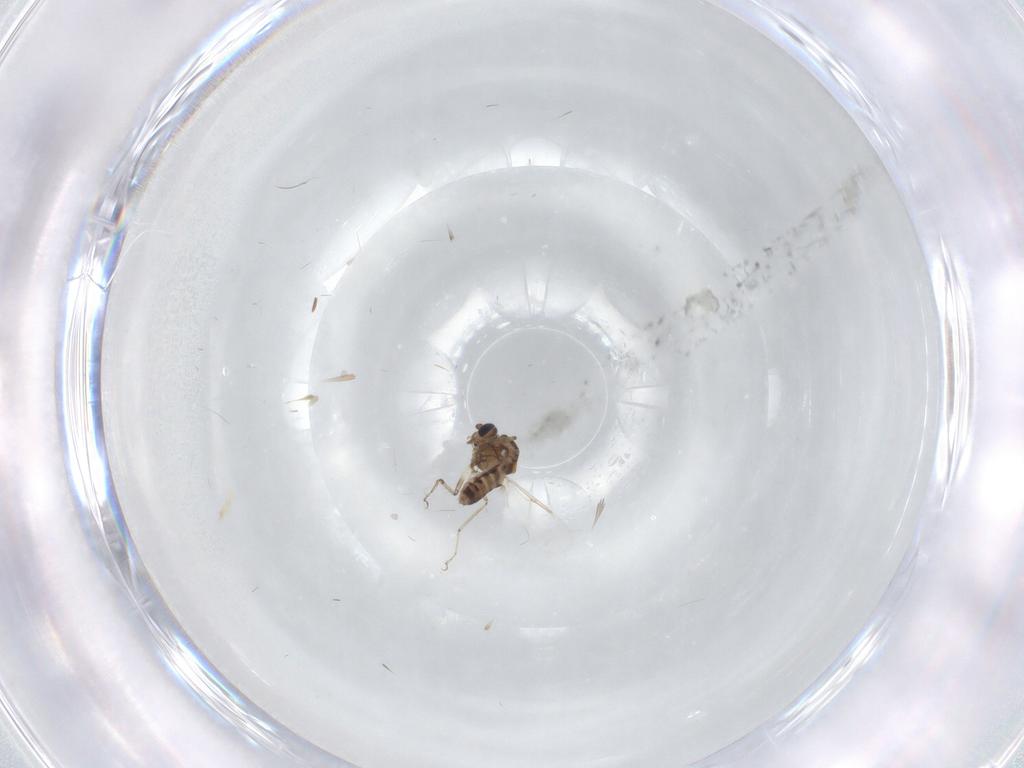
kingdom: Animalia
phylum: Arthropoda
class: Insecta
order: Diptera
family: Ceratopogonidae
